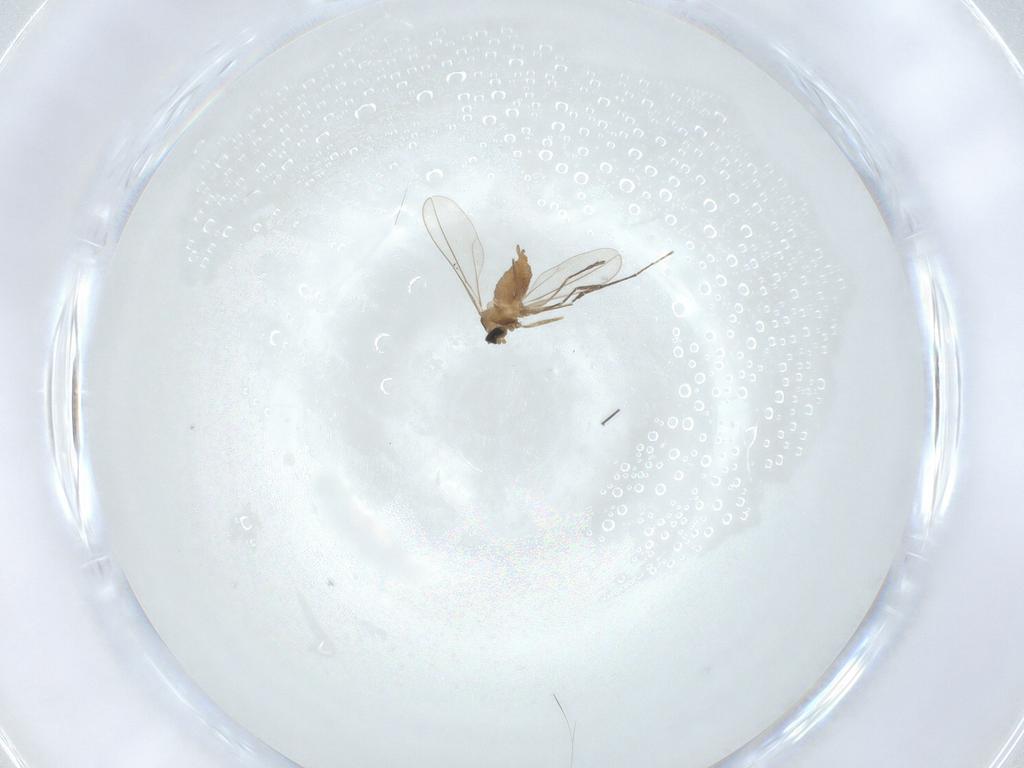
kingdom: Animalia
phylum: Arthropoda
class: Insecta
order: Diptera
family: Cecidomyiidae
